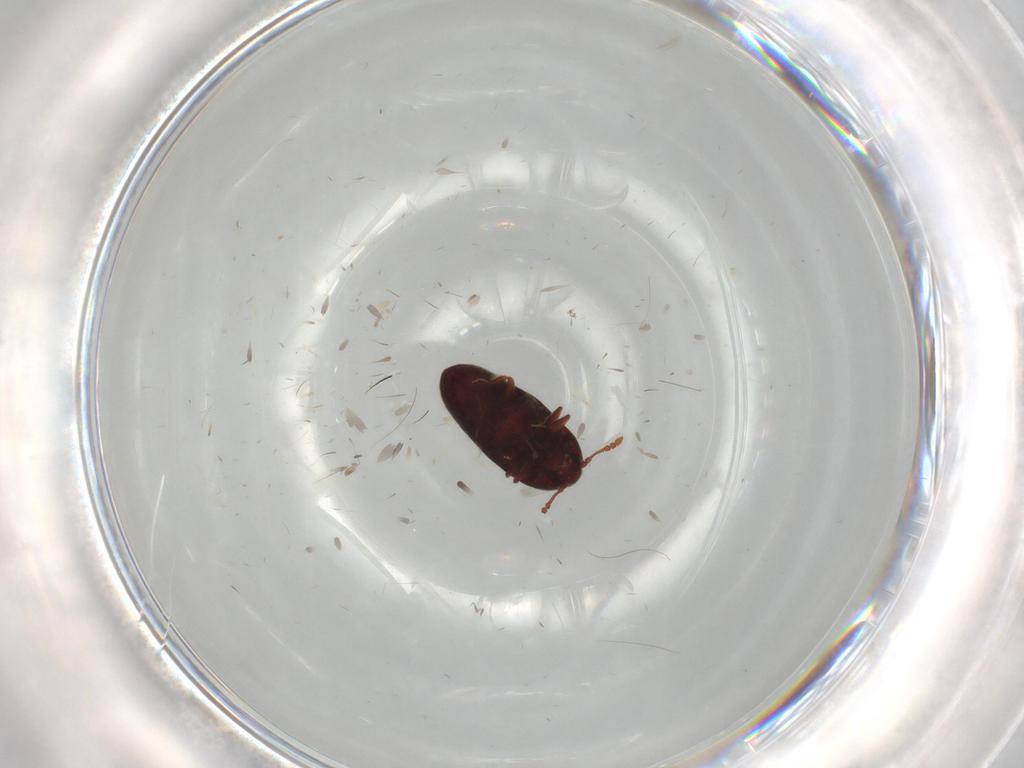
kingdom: Animalia
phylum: Arthropoda
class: Insecta
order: Coleoptera
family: Throscidae
